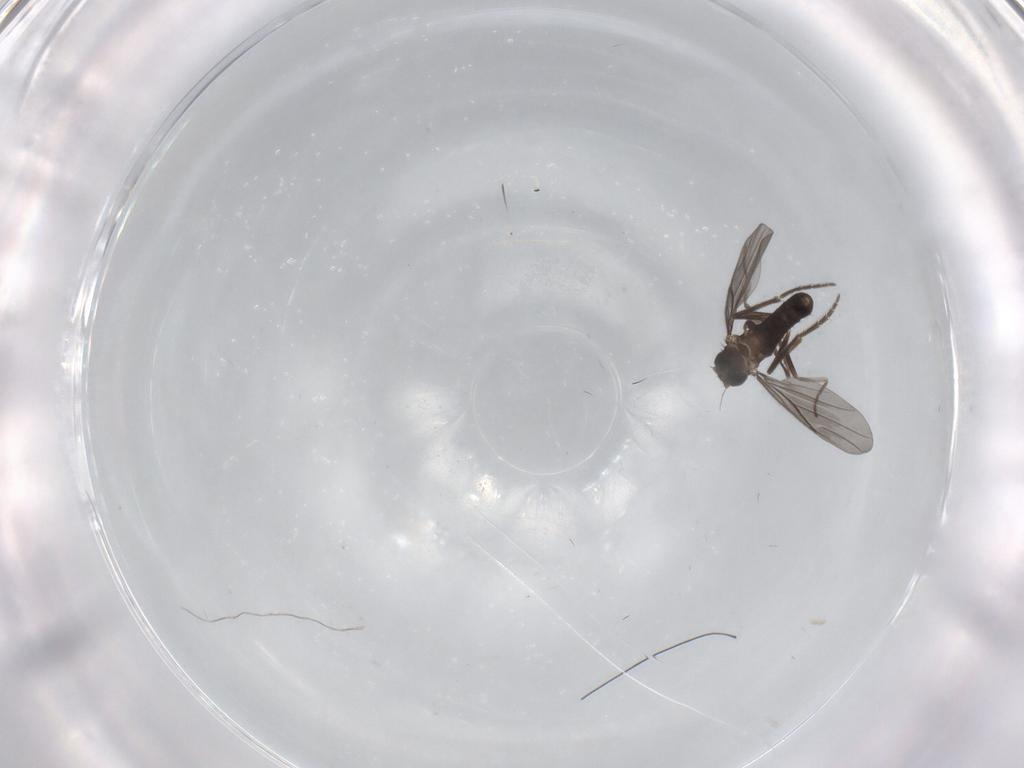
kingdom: Animalia
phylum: Arthropoda
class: Insecta
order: Diptera
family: Phoridae
